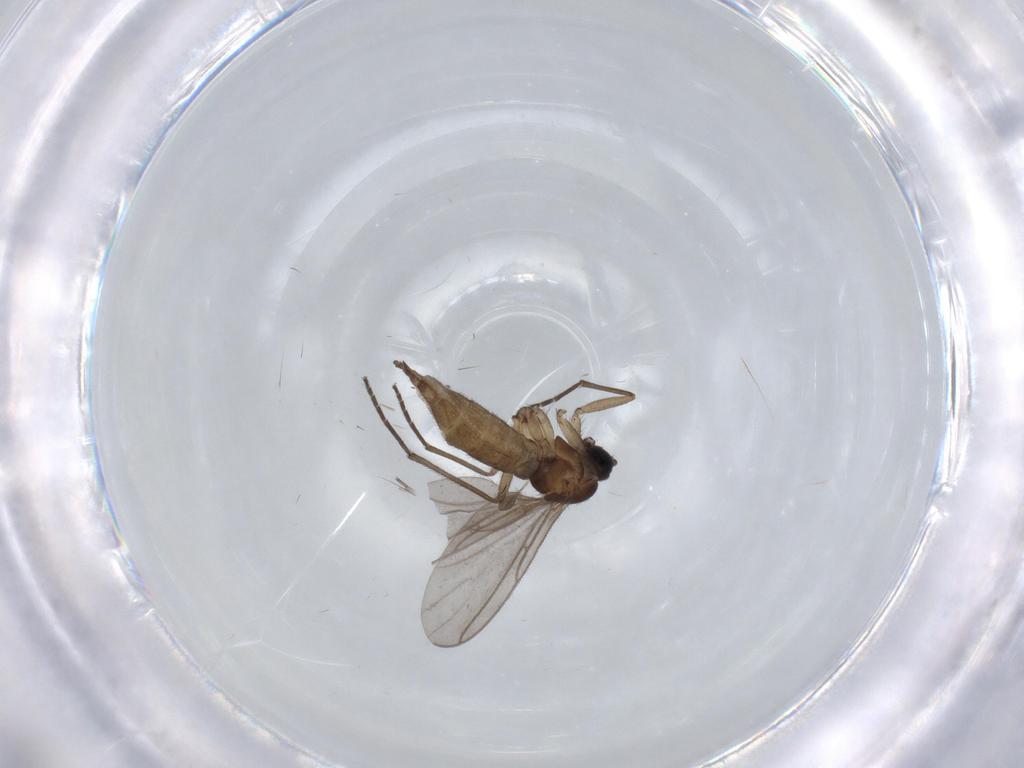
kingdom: Animalia
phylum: Arthropoda
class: Insecta
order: Diptera
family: Sciaridae
